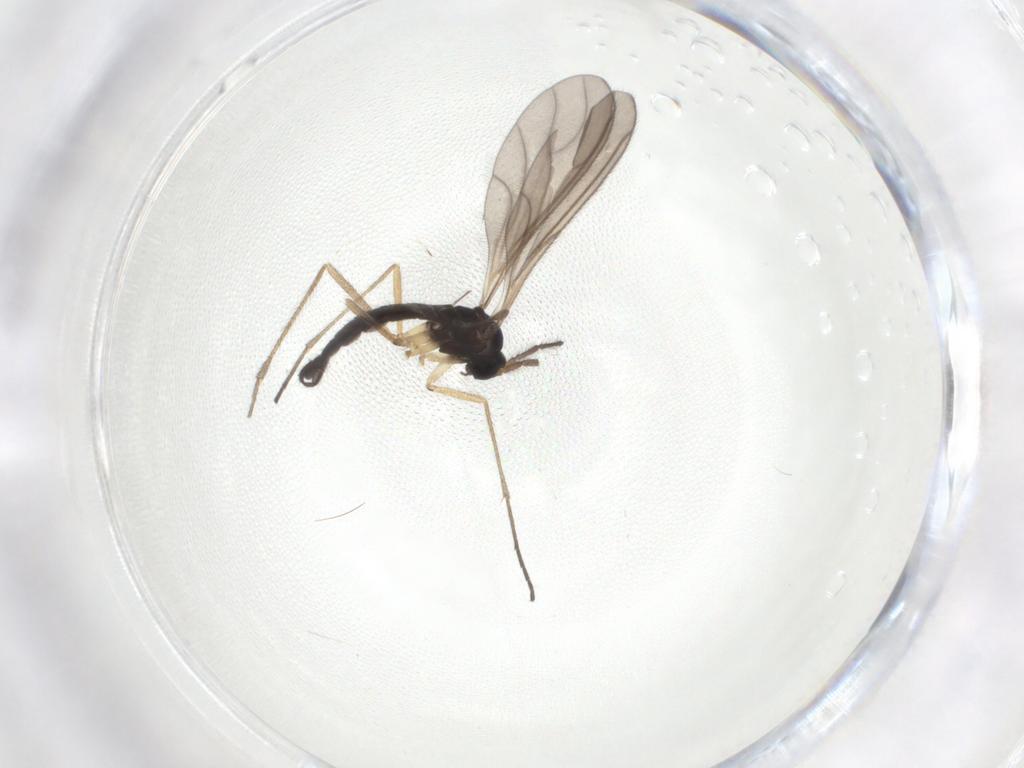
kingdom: Animalia
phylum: Arthropoda
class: Insecta
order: Diptera
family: Sciaridae
